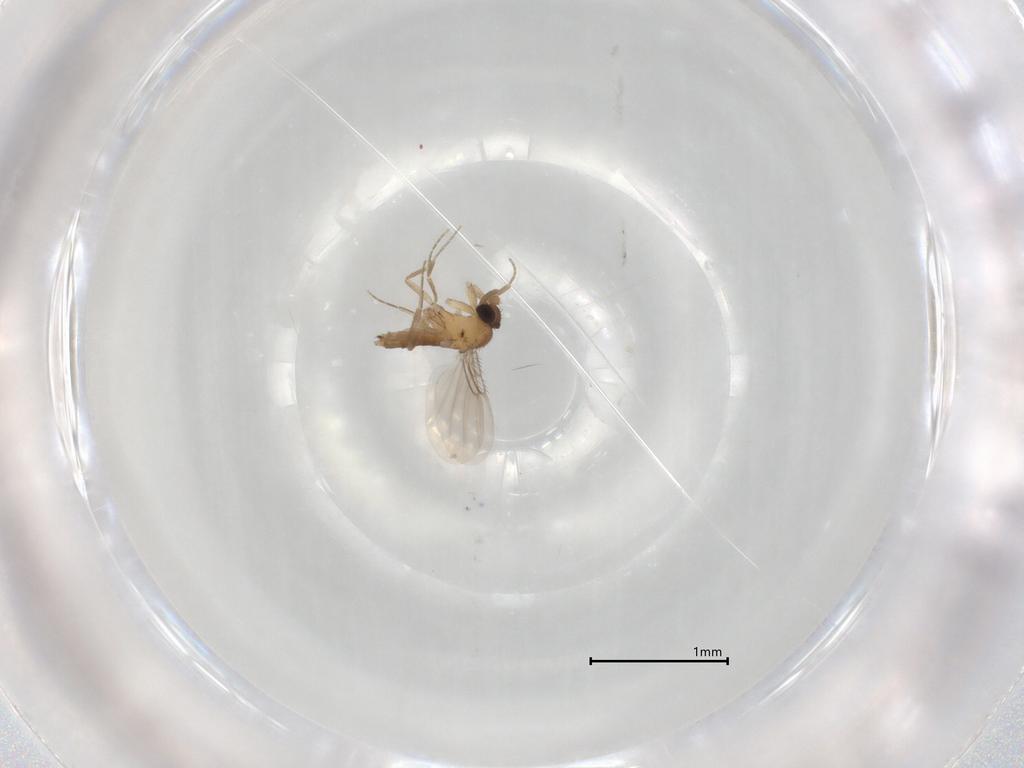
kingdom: Animalia
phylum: Arthropoda
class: Insecta
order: Diptera
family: Phoridae
